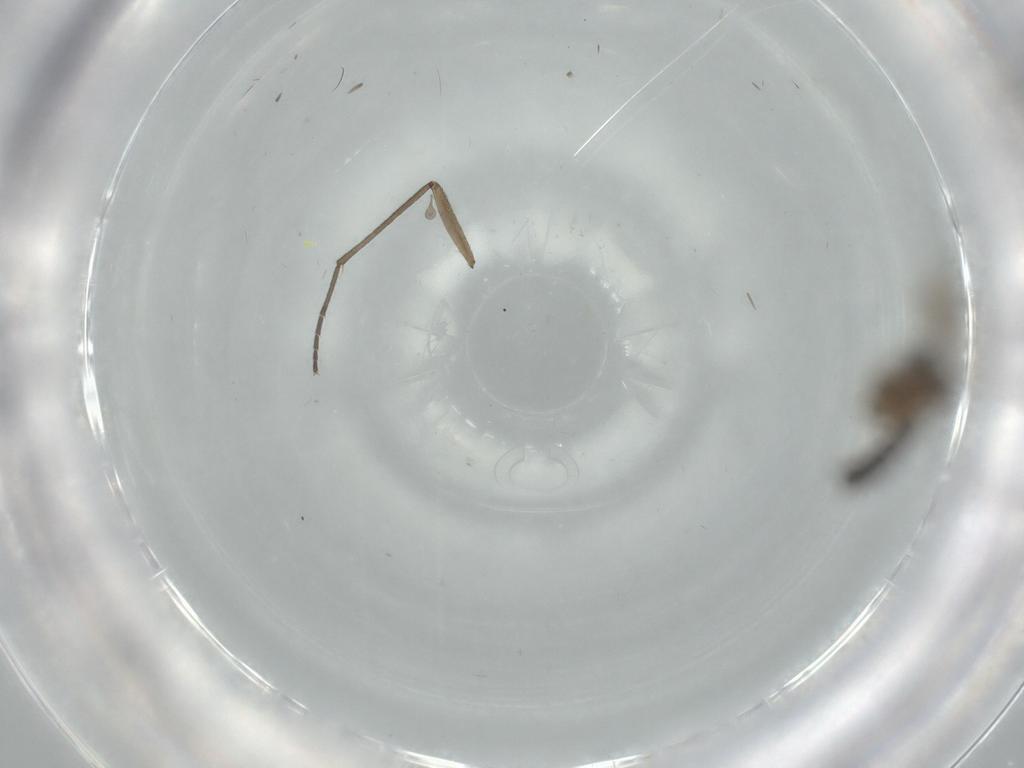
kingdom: Animalia
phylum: Arthropoda
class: Insecta
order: Diptera
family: Cecidomyiidae
